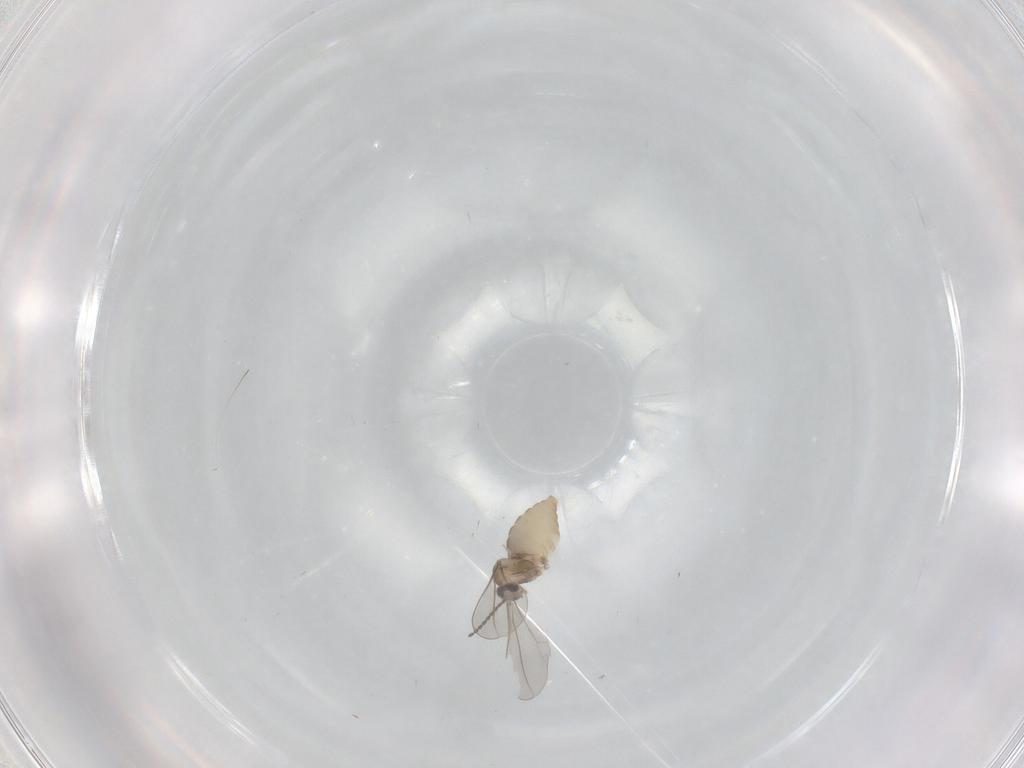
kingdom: Animalia
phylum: Arthropoda
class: Insecta
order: Diptera
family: Cecidomyiidae
